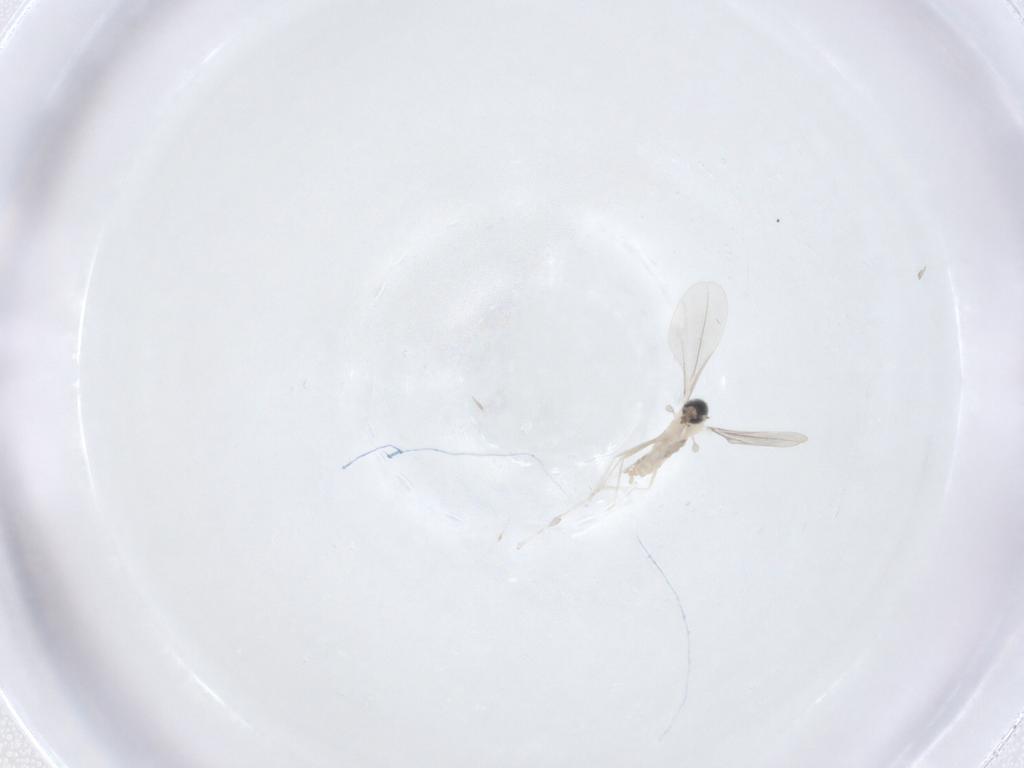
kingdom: Animalia
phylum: Arthropoda
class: Insecta
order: Diptera
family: Cecidomyiidae
